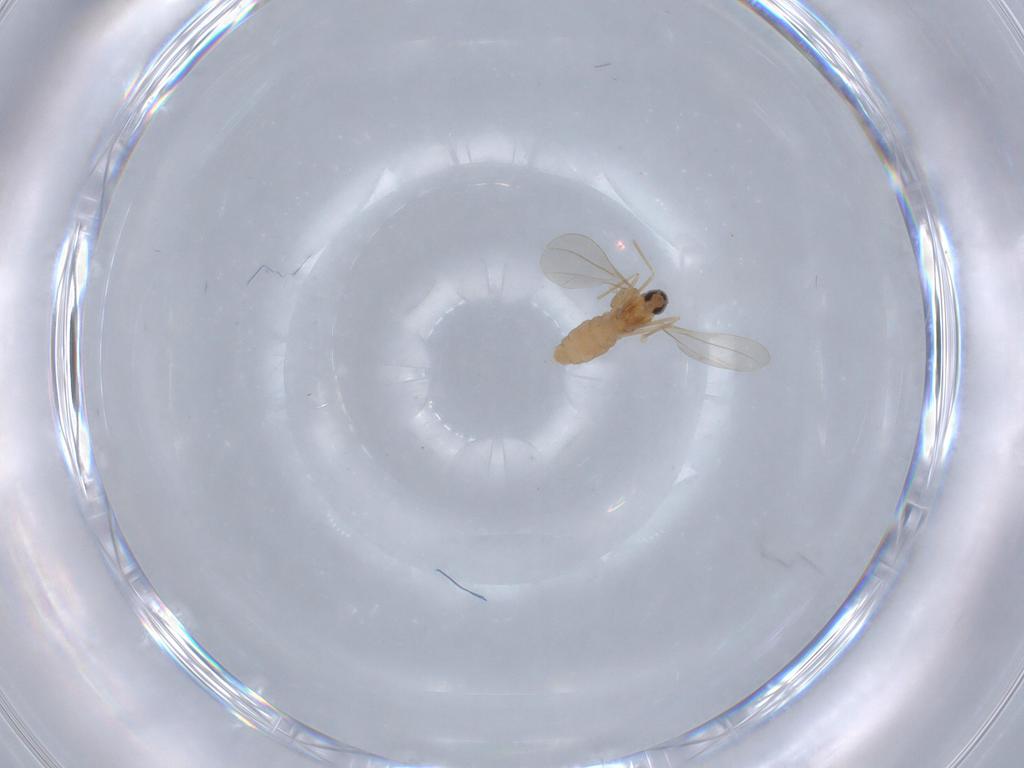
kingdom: Animalia
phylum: Arthropoda
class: Insecta
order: Diptera
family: Cecidomyiidae
